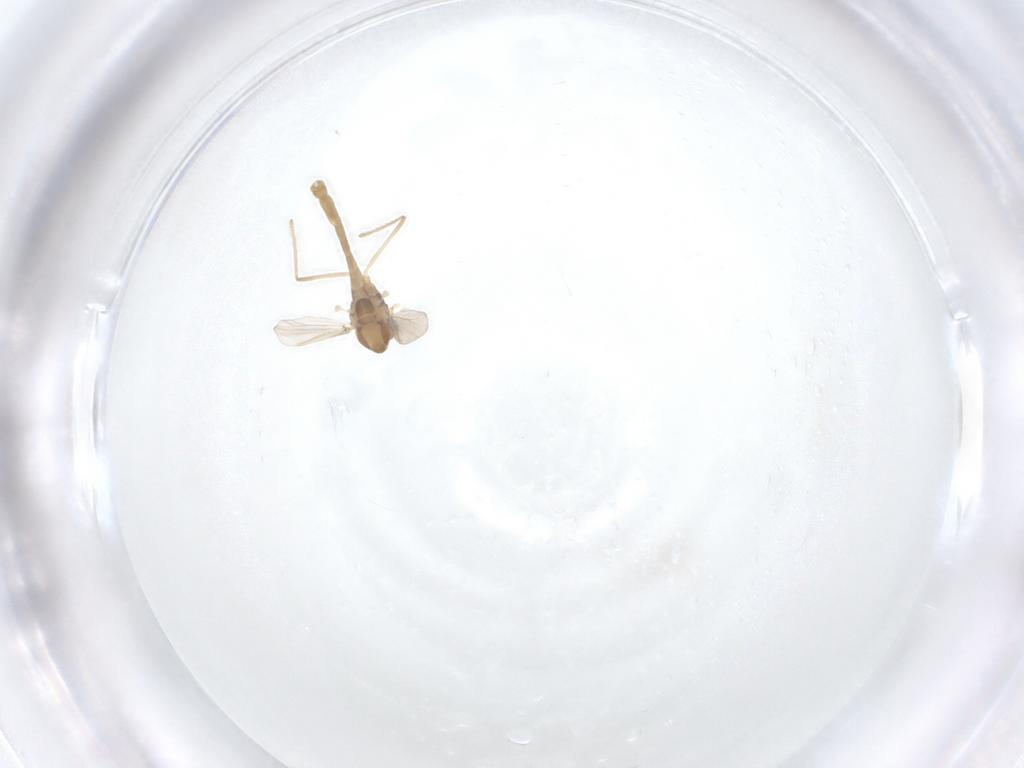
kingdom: Animalia
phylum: Arthropoda
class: Insecta
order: Diptera
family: Chironomidae
